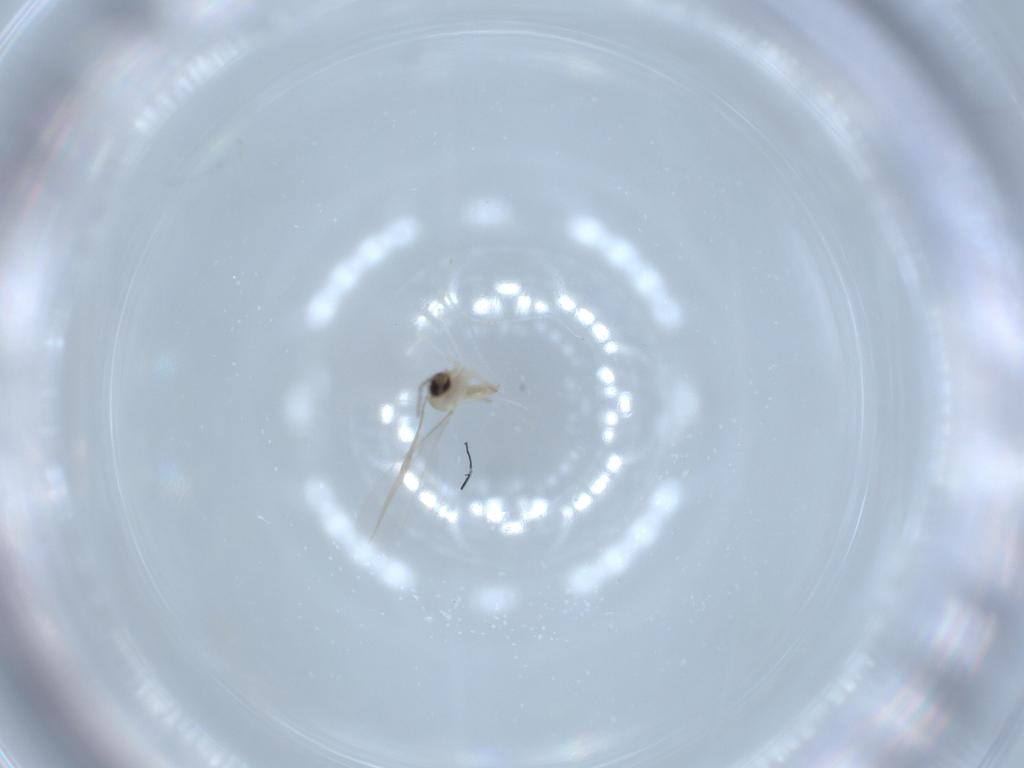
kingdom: Animalia
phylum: Arthropoda
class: Insecta
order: Diptera
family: Cecidomyiidae
